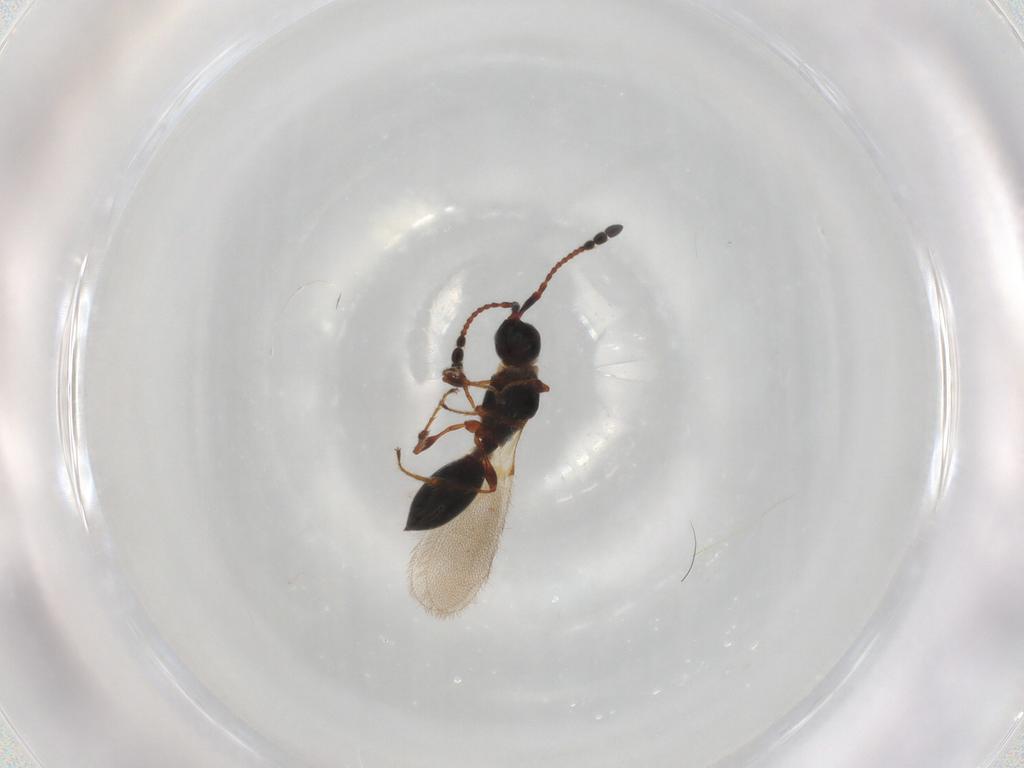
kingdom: Animalia
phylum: Arthropoda
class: Insecta
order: Hymenoptera
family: Diapriidae
